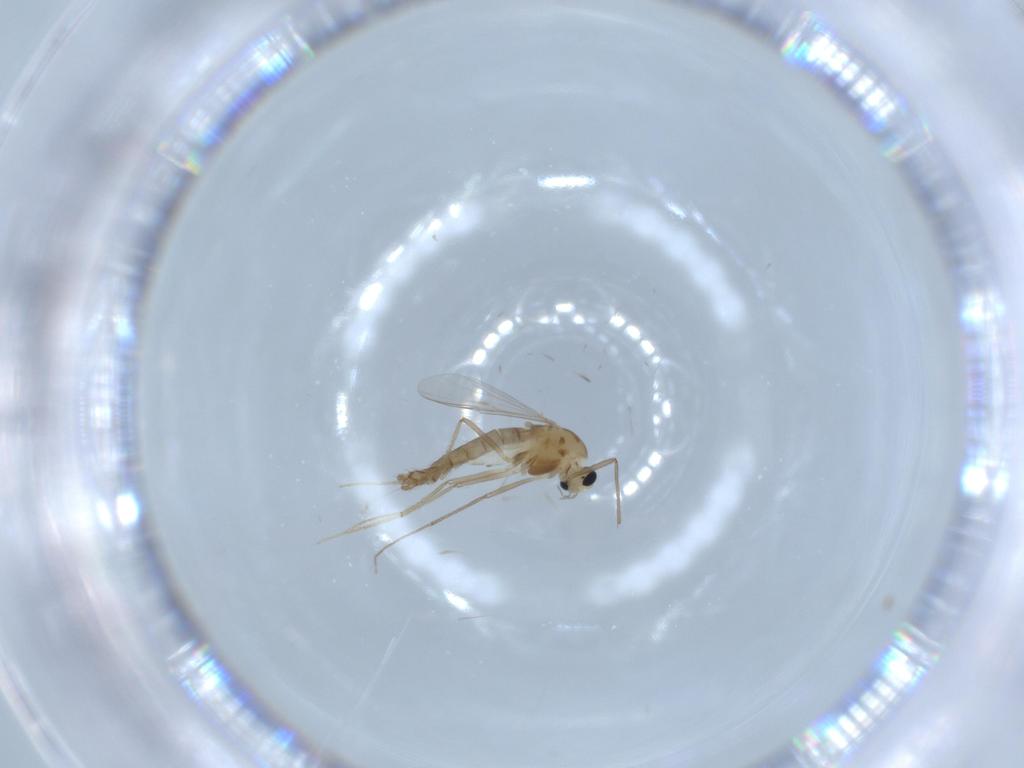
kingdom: Animalia
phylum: Arthropoda
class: Insecta
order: Diptera
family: Chironomidae
